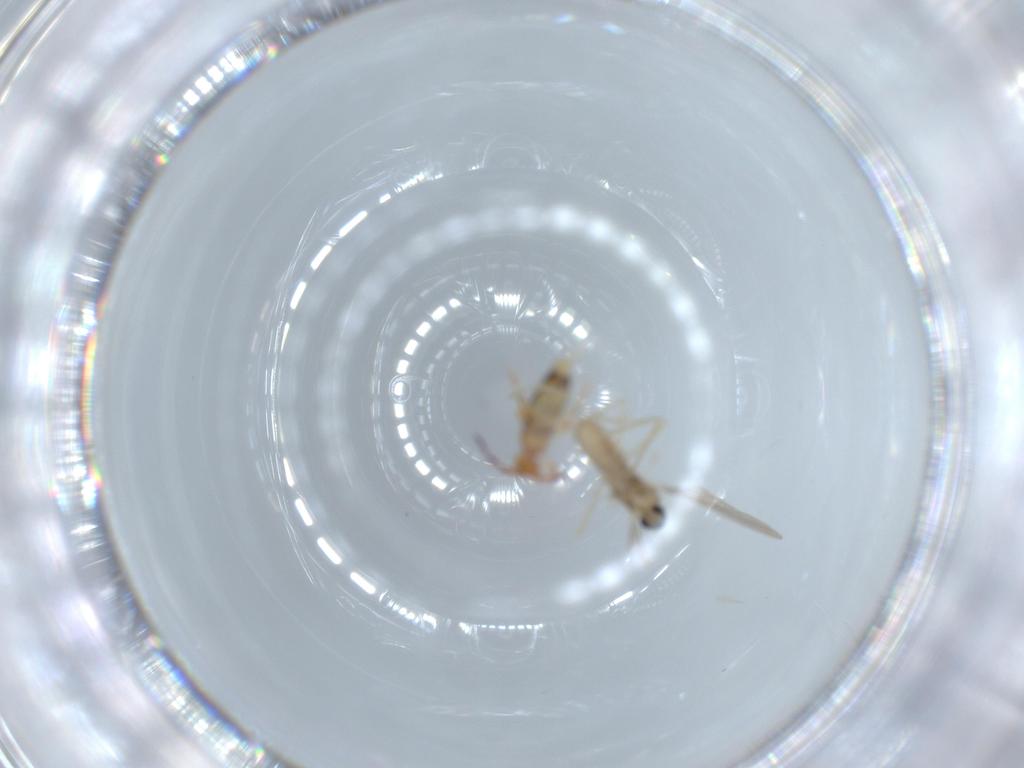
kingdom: Animalia
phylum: Arthropoda
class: Insecta
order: Diptera
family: Cecidomyiidae
